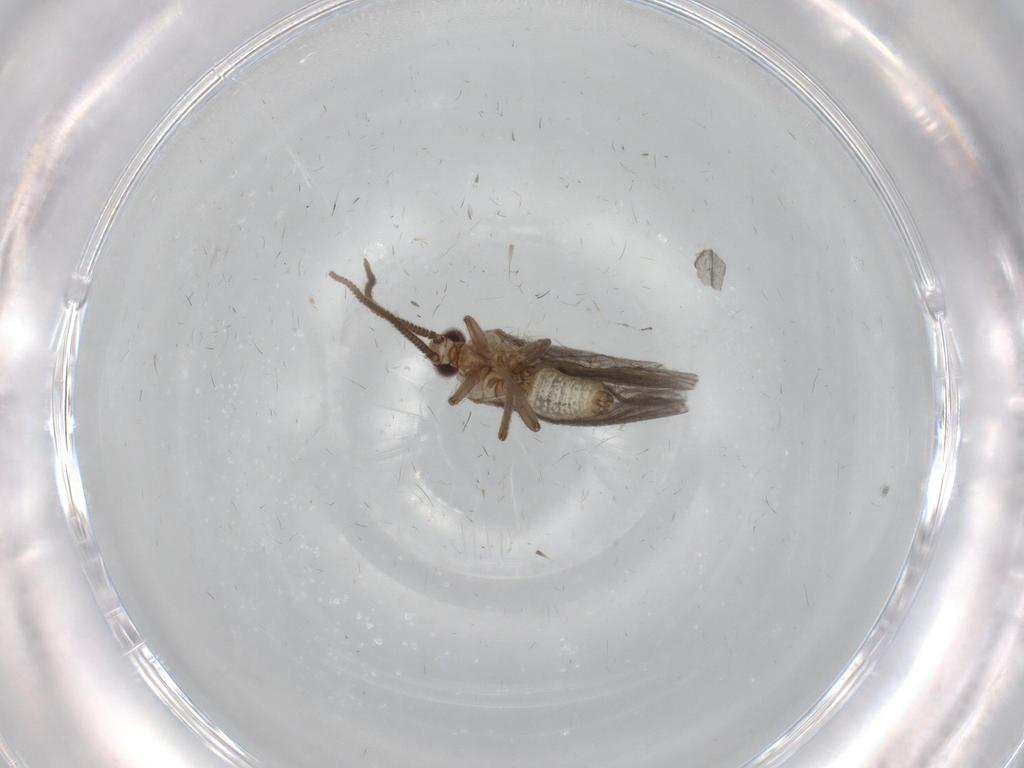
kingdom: Animalia
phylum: Arthropoda
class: Insecta
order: Neuroptera
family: Coniopterygidae
